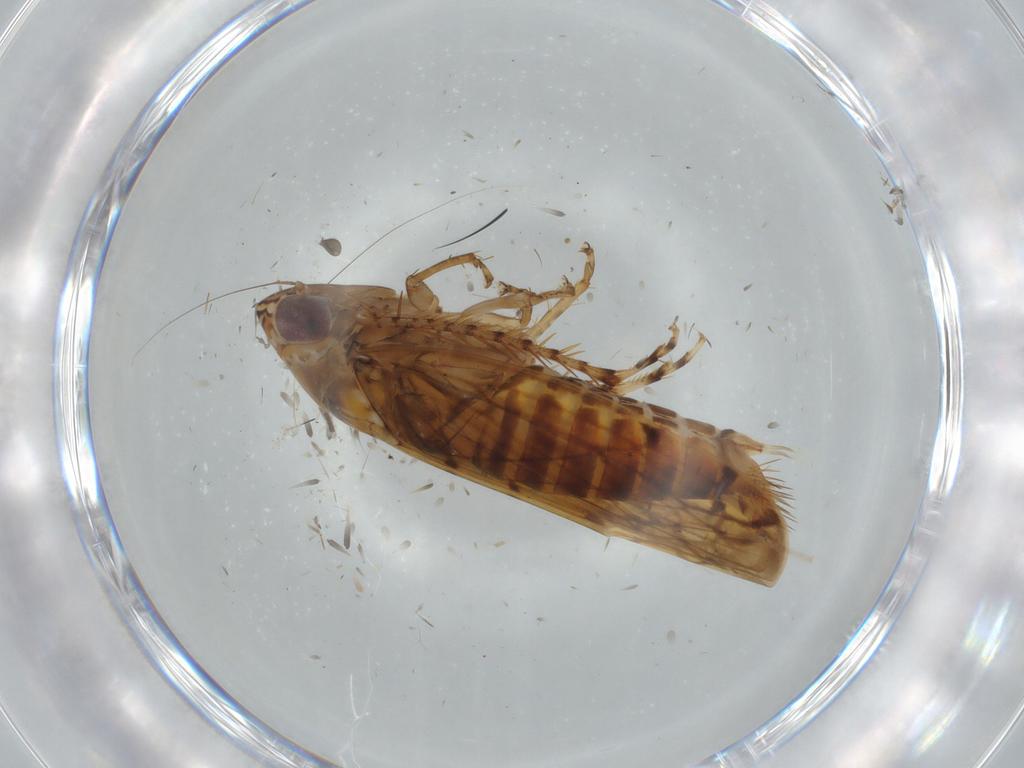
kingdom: Animalia
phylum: Arthropoda
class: Insecta
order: Hemiptera
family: Cicadellidae
